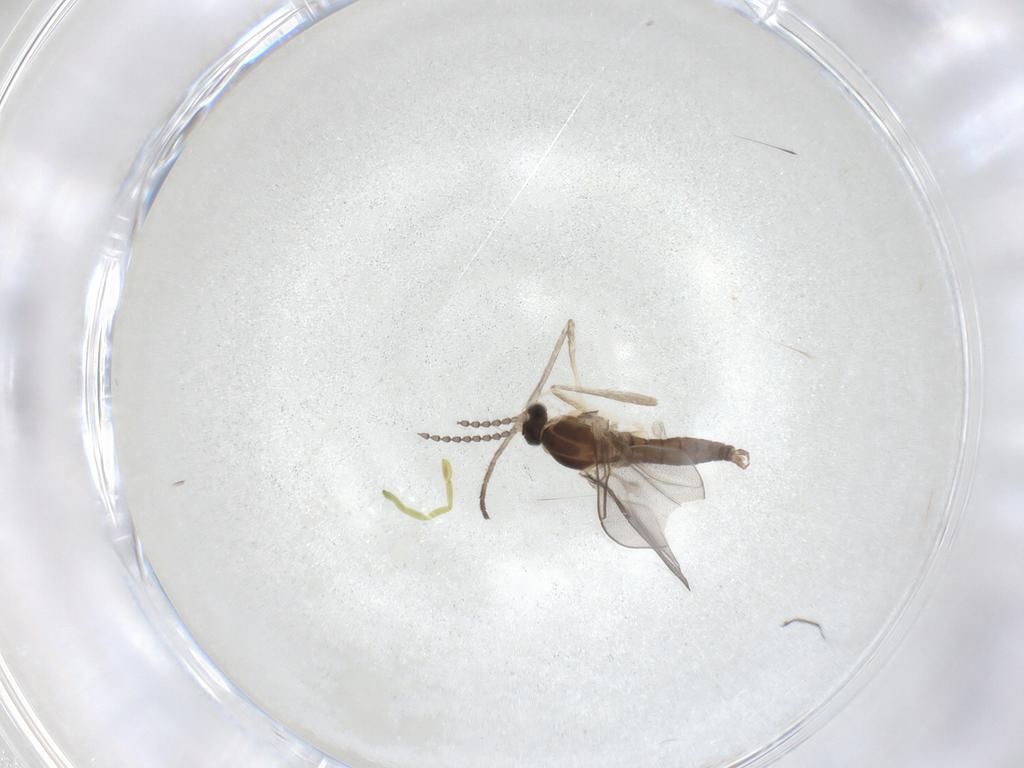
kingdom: Animalia
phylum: Arthropoda
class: Insecta
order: Diptera
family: Cecidomyiidae
